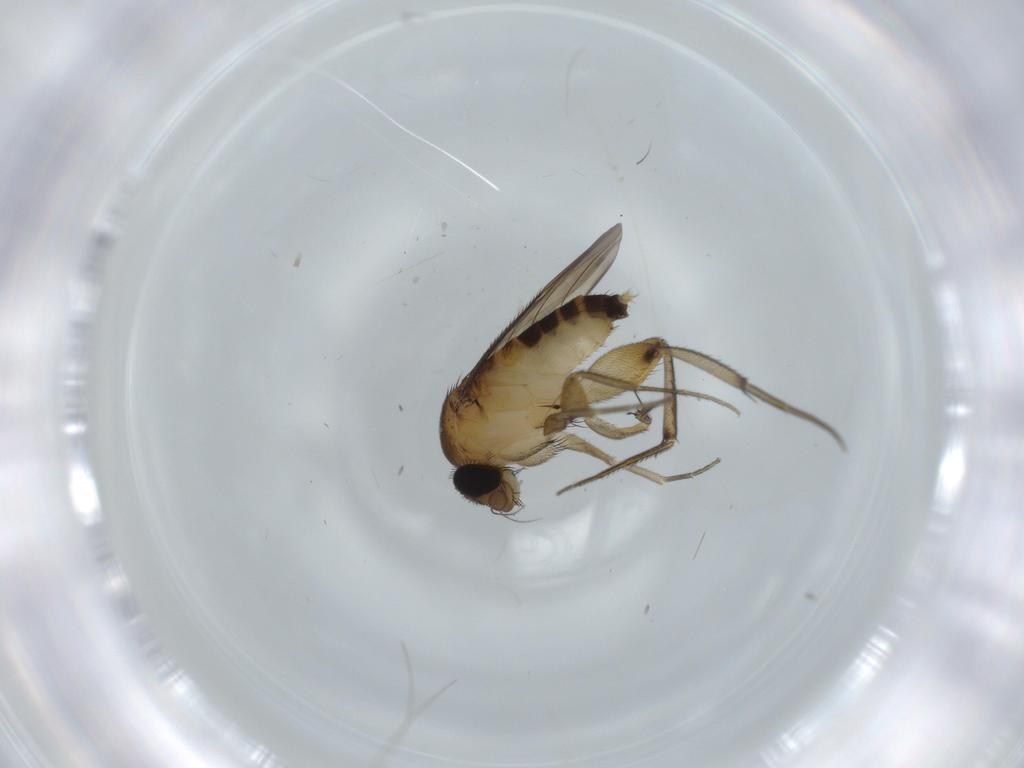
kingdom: Animalia
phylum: Arthropoda
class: Insecta
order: Diptera
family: Phoridae
